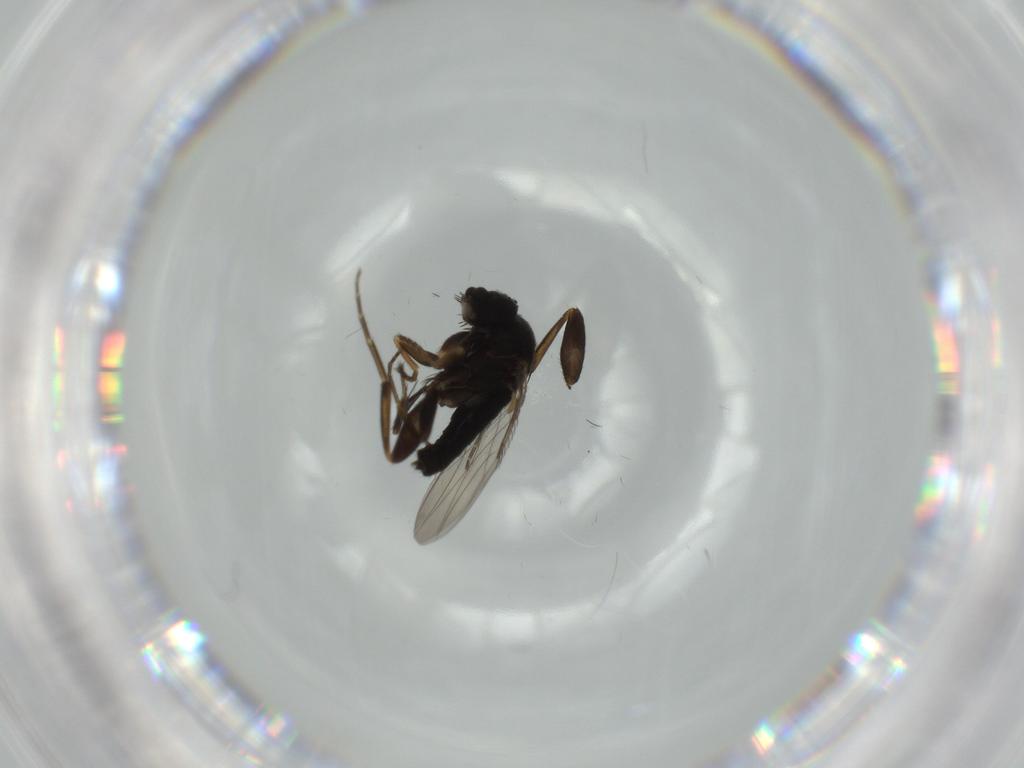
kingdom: Animalia
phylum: Arthropoda
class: Insecta
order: Diptera
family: Phoridae
